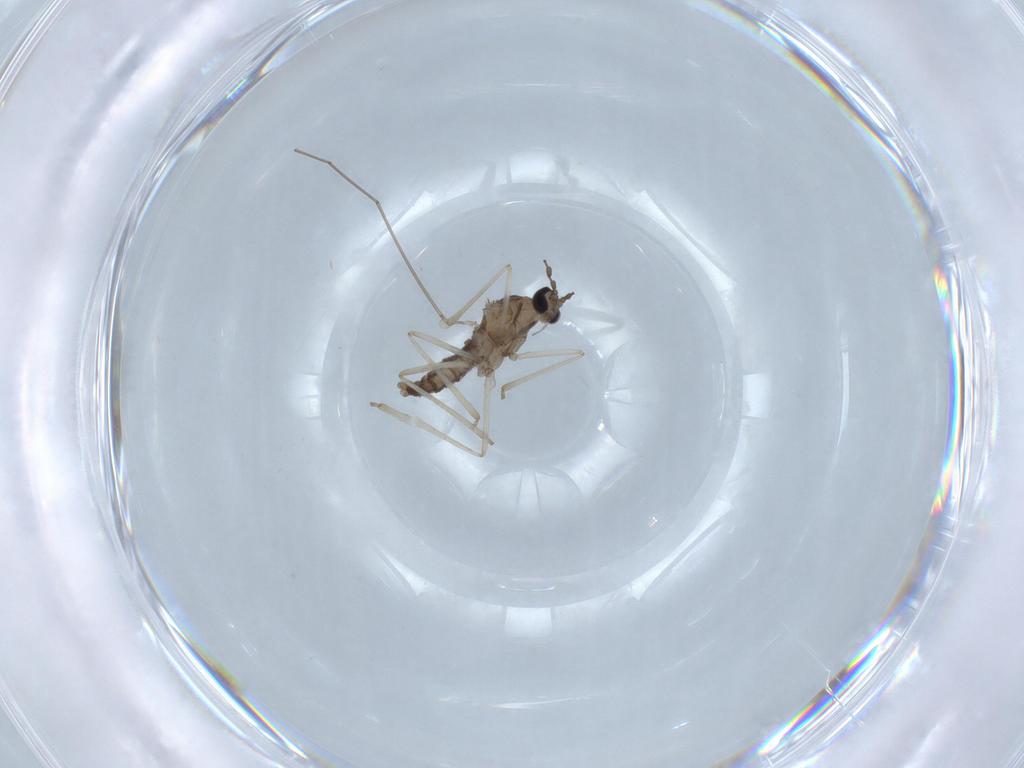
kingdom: Animalia
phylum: Arthropoda
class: Insecta
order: Diptera
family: Cecidomyiidae
